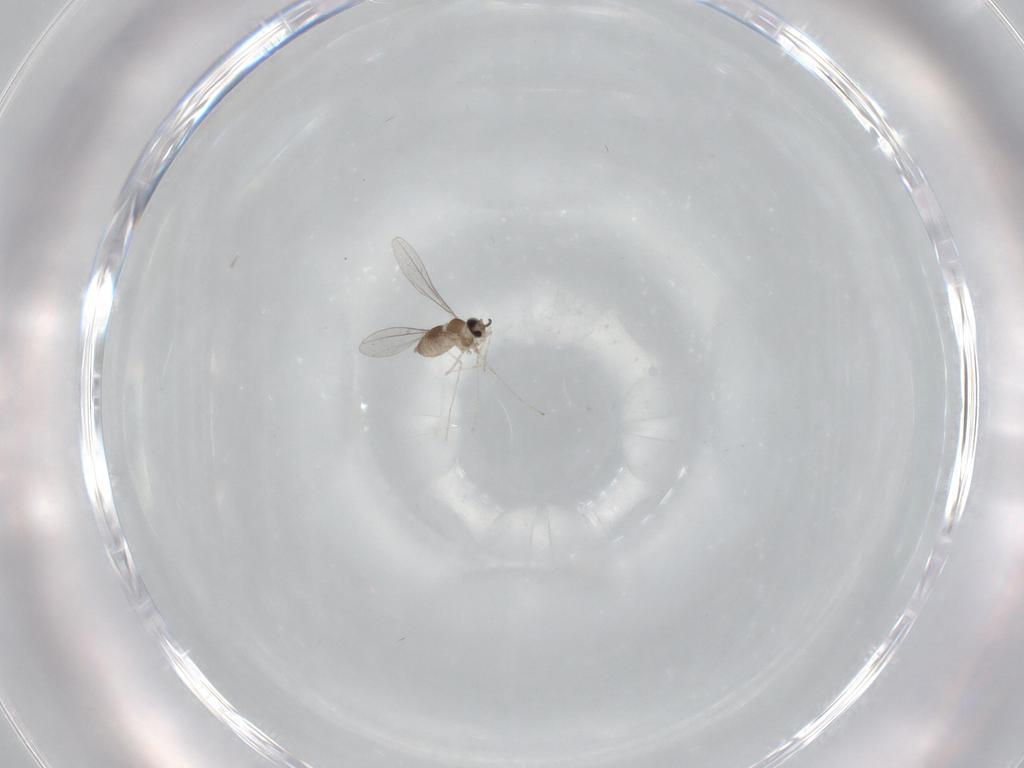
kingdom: Animalia
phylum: Arthropoda
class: Insecta
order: Diptera
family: Cecidomyiidae
